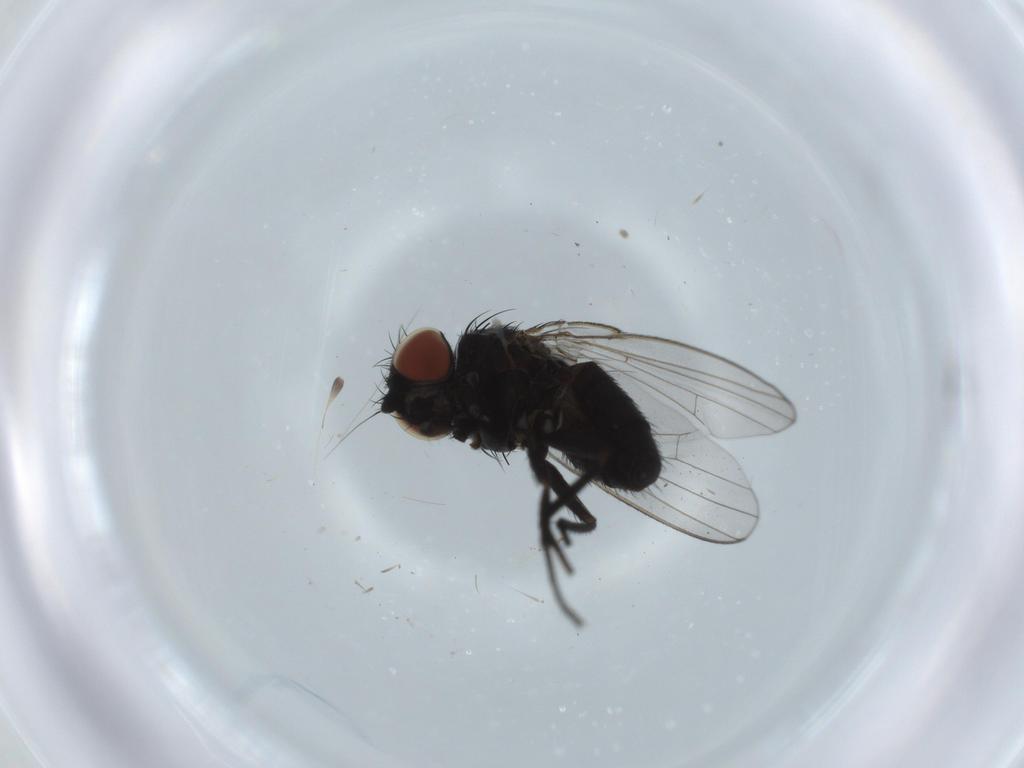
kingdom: Animalia
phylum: Arthropoda
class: Insecta
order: Diptera
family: Milichiidae
